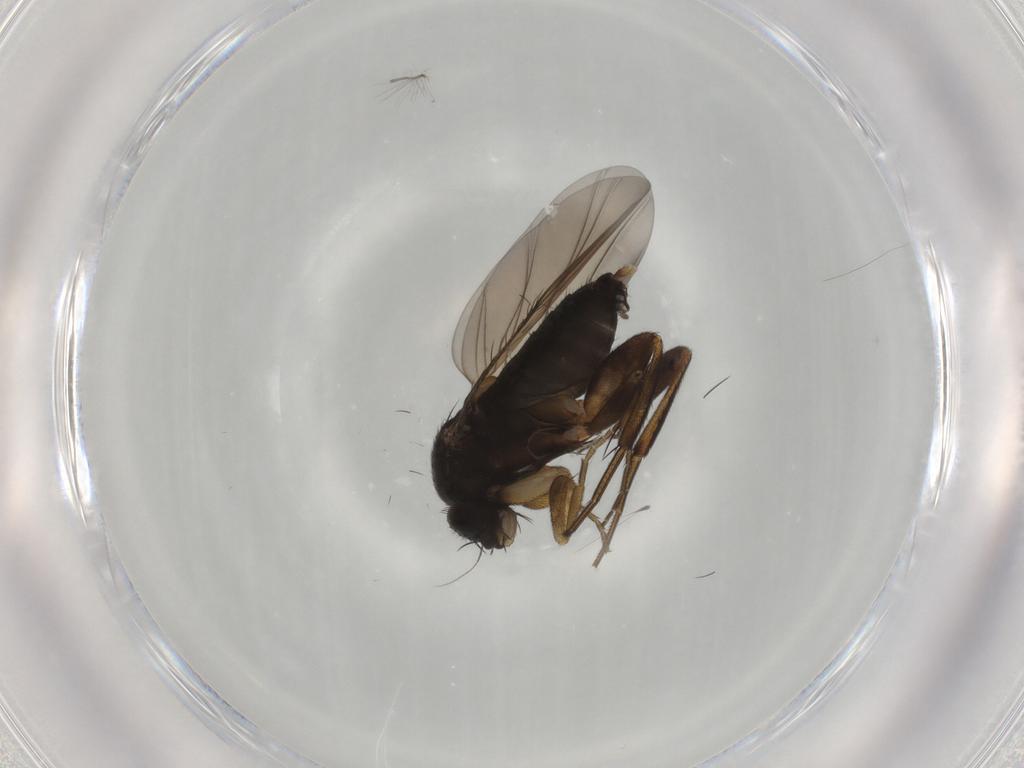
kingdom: Animalia
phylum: Arthropoda
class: Insecta
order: Diptera
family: Phoridae
